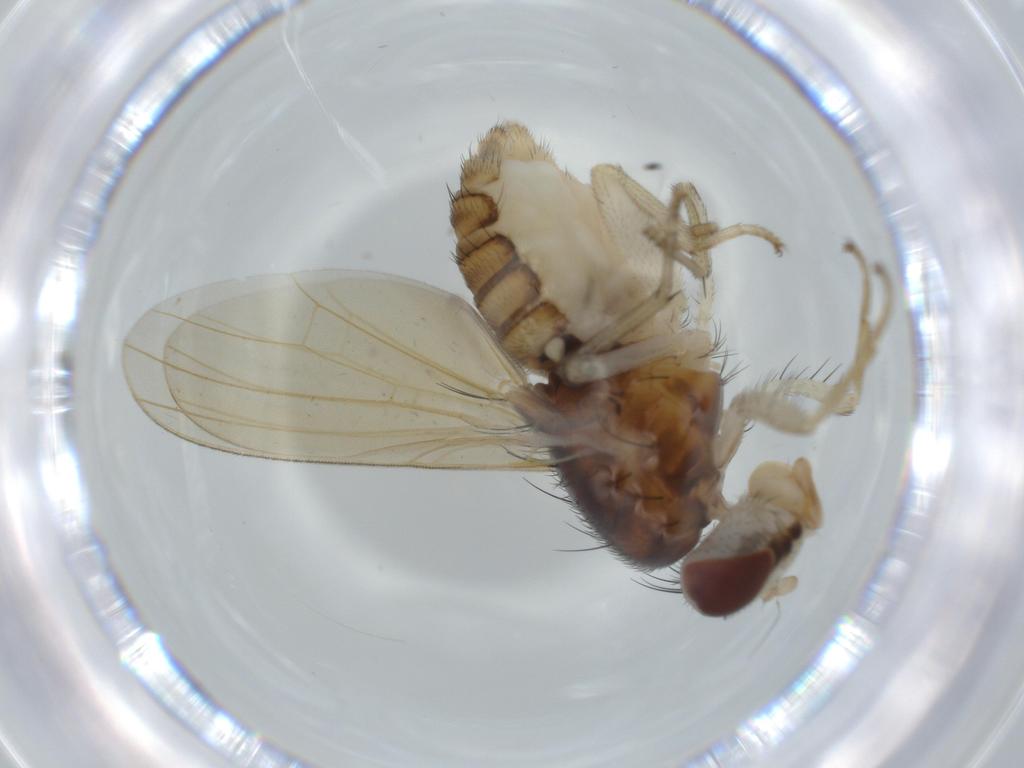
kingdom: Animalia
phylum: Arthropoda
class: Insecta
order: Diptera
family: Lauxaniidae
